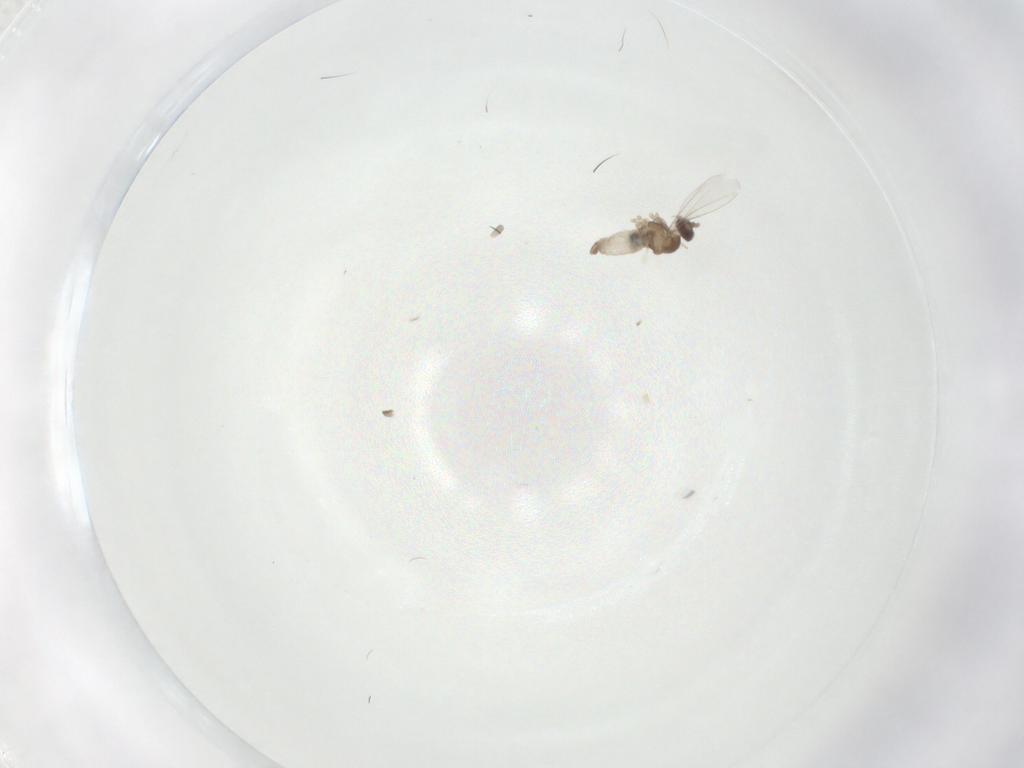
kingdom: Animalia
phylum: Arthropoda
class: Insecta
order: Diptera
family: Cecidomyiidae
